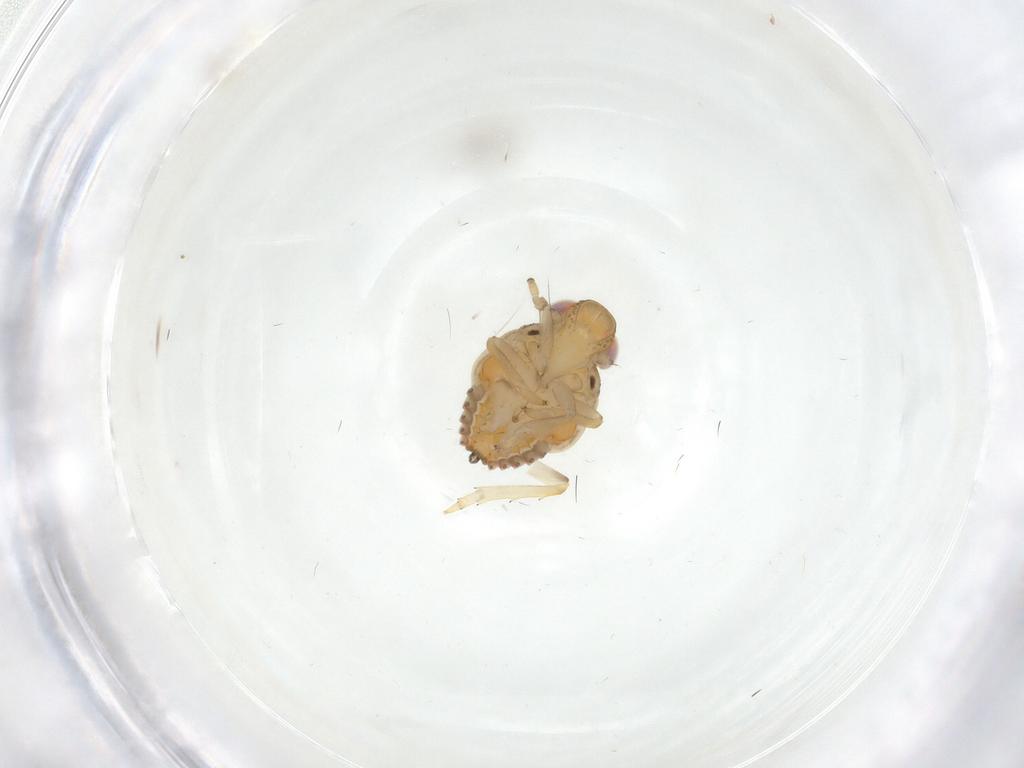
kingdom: Animalia
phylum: Arthropoda
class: Insecta
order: Hemiptera
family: Issidae
